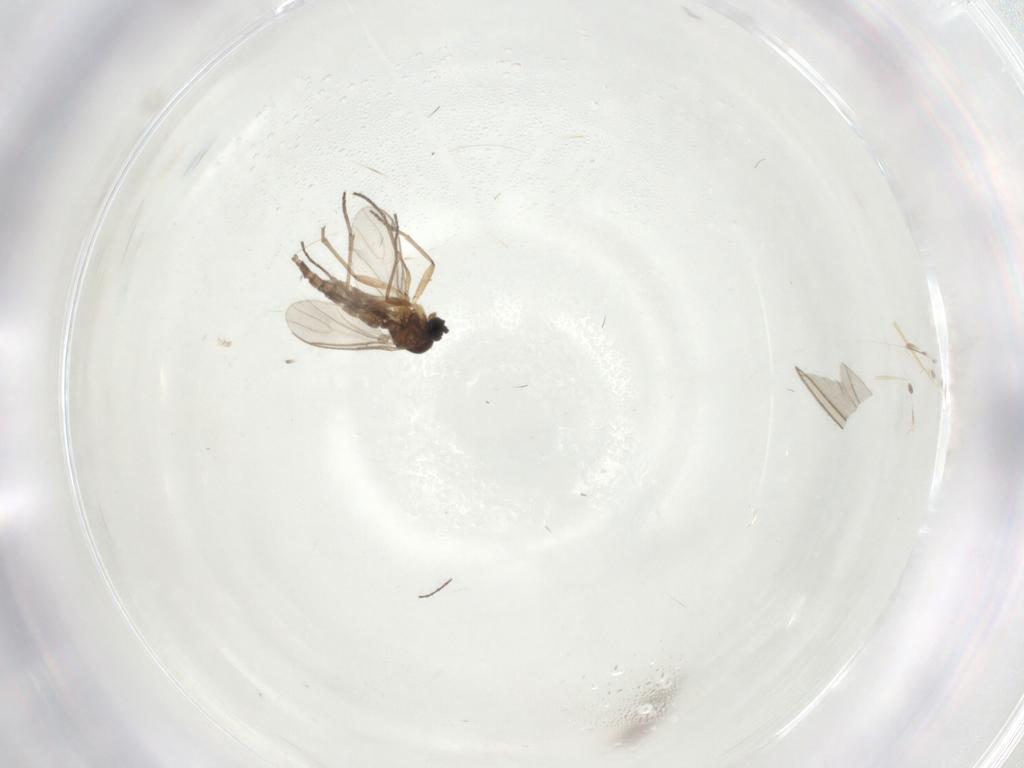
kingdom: Animalia
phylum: Arthropoda
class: Insecta
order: Diptera
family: Sciaridae
